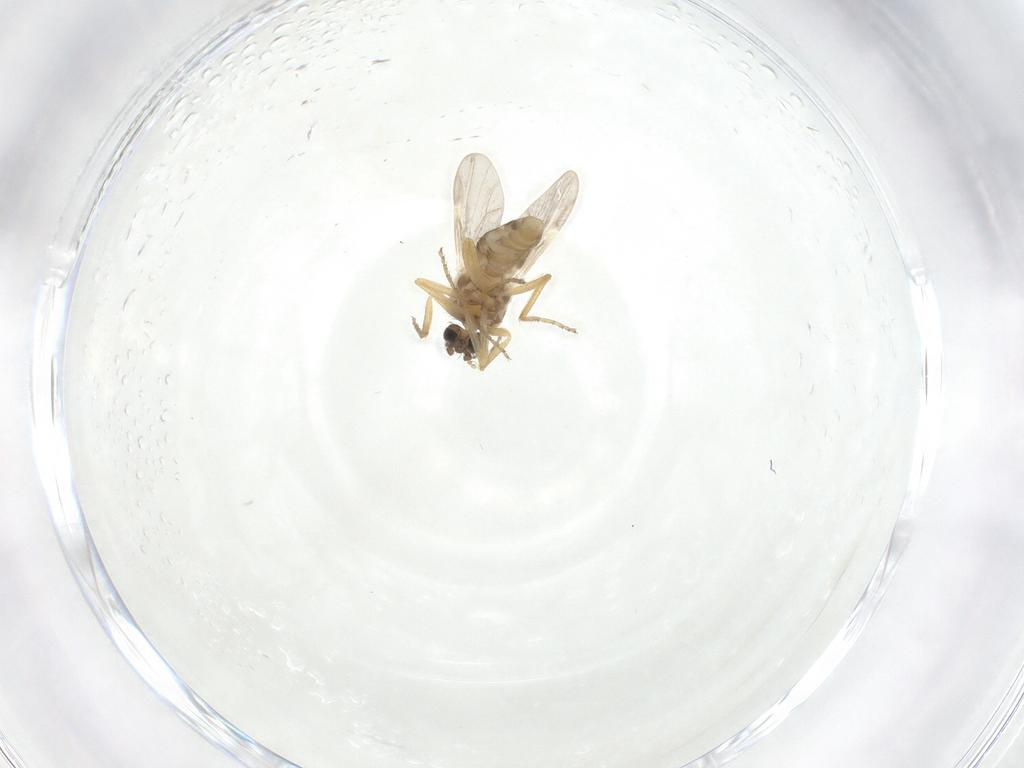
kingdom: Animalia
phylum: Arthropoda
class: Insecta
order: Diptera
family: Ceratopogonidae
